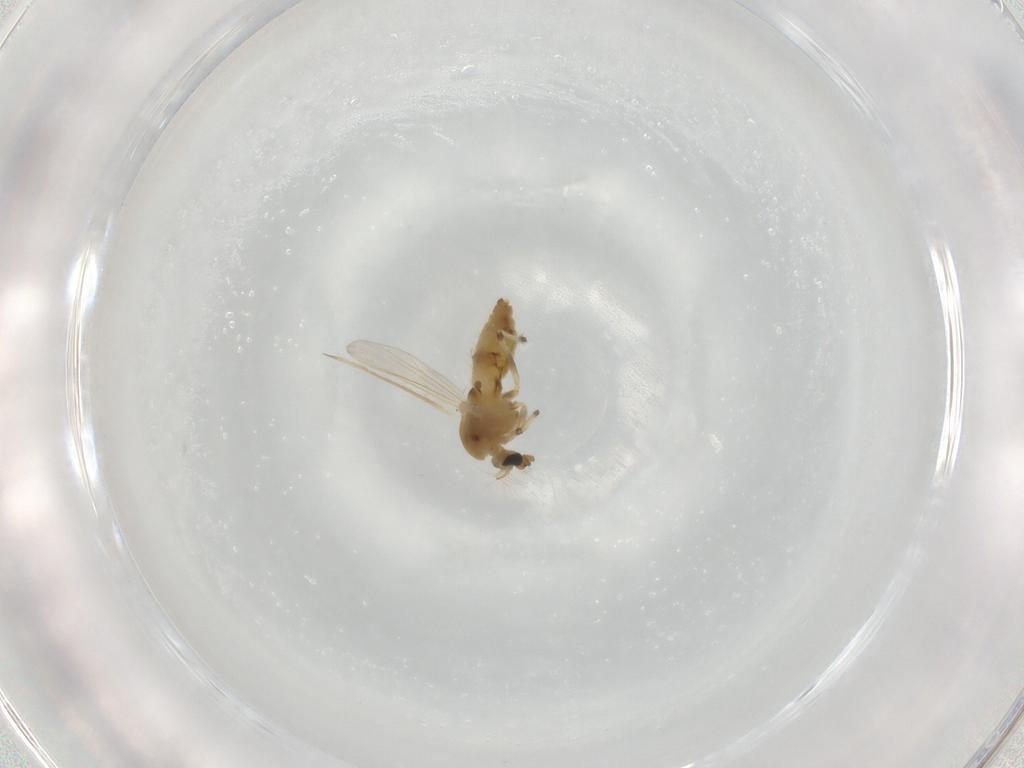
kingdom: Animalia
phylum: Arthropoda
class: Insecta
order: Diptera
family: Chironomidae
